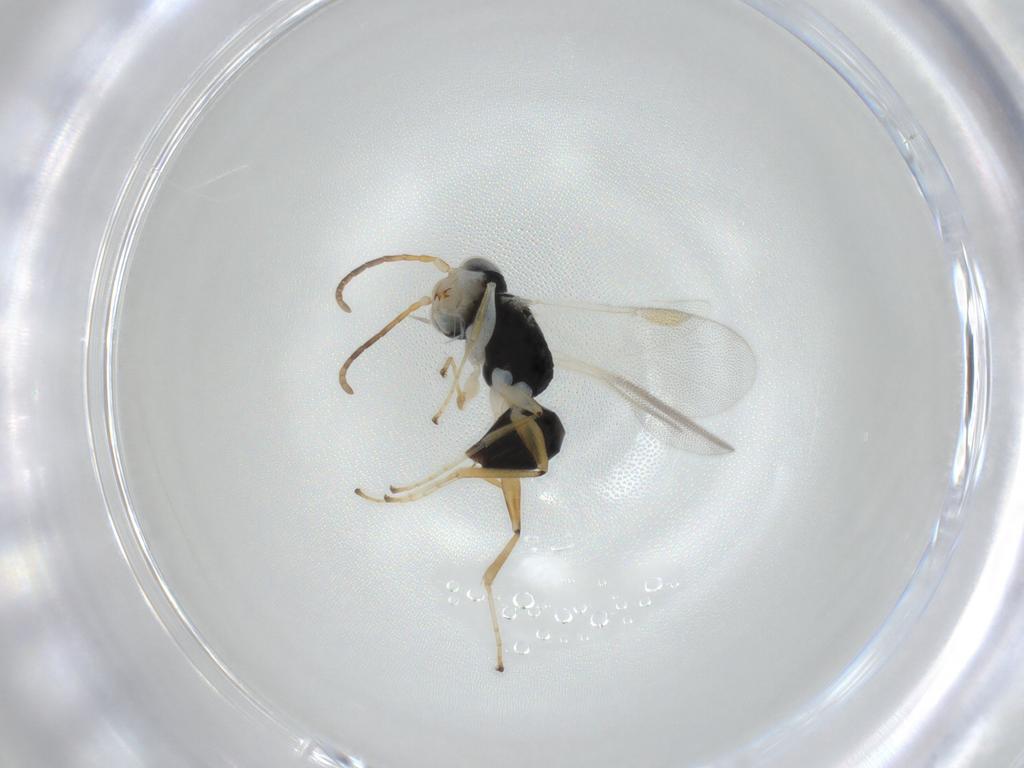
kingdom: Animalia
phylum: Arthropoda
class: Insecta
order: Hymenoptera
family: Dryinidae
